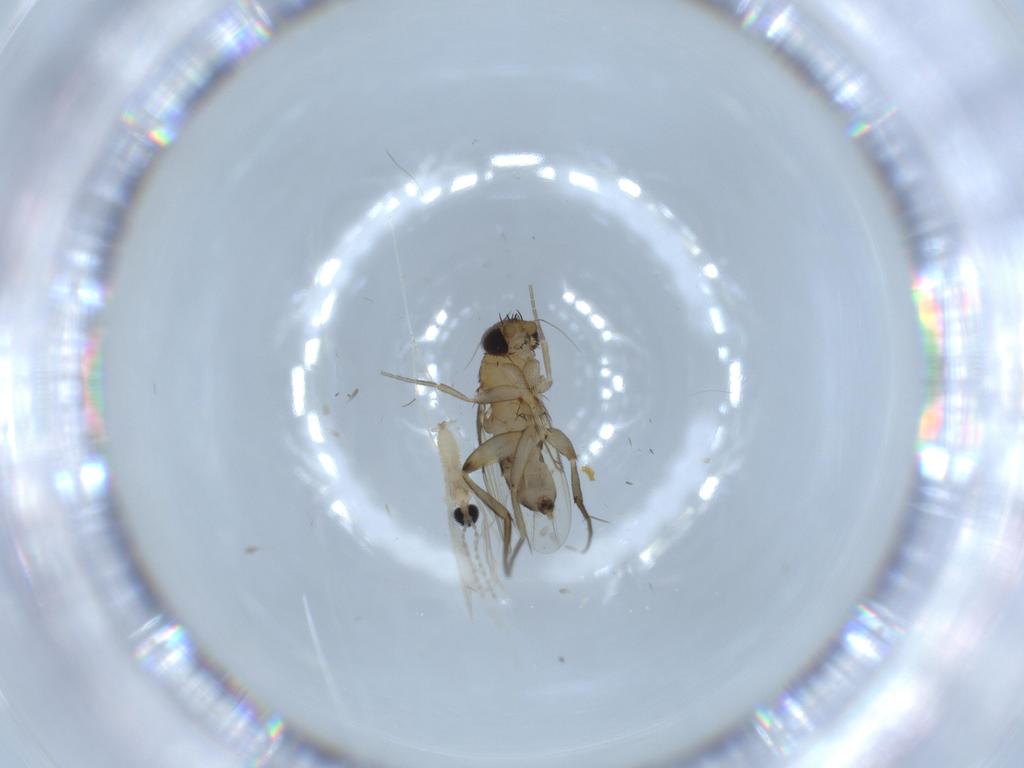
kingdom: Animalia
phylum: Arthropoda
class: Insecta
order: Diptera
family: Phoridae
